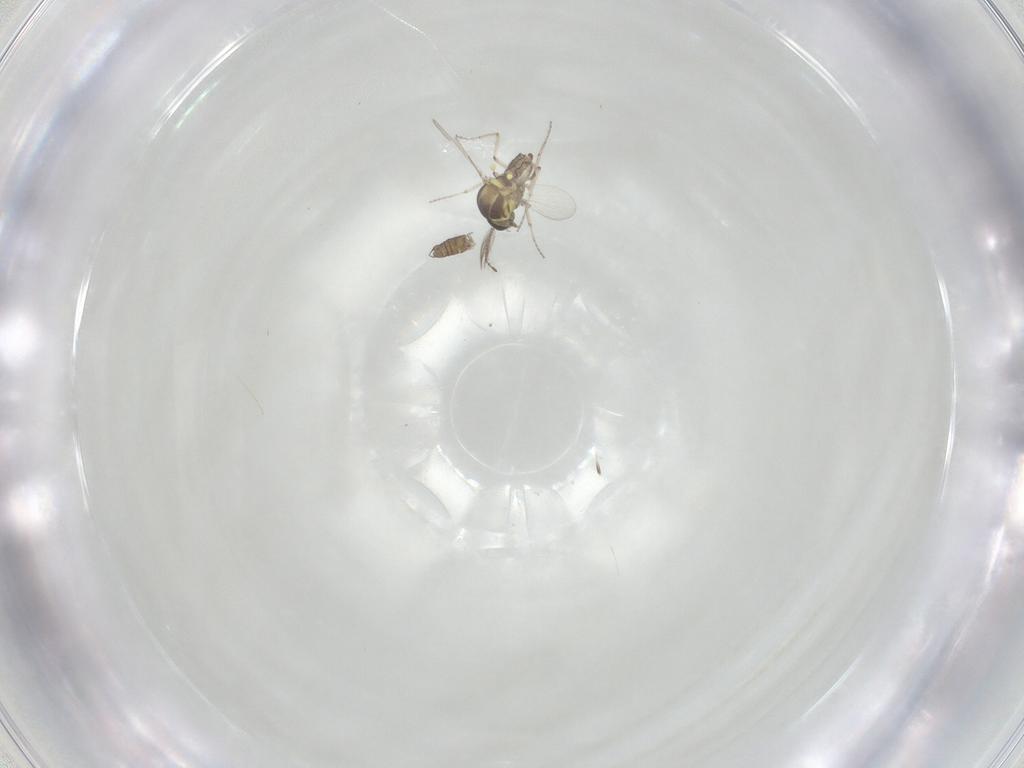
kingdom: Animalia
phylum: Arthropoda
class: Insecta
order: Diptera
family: Ceratopogonidae
